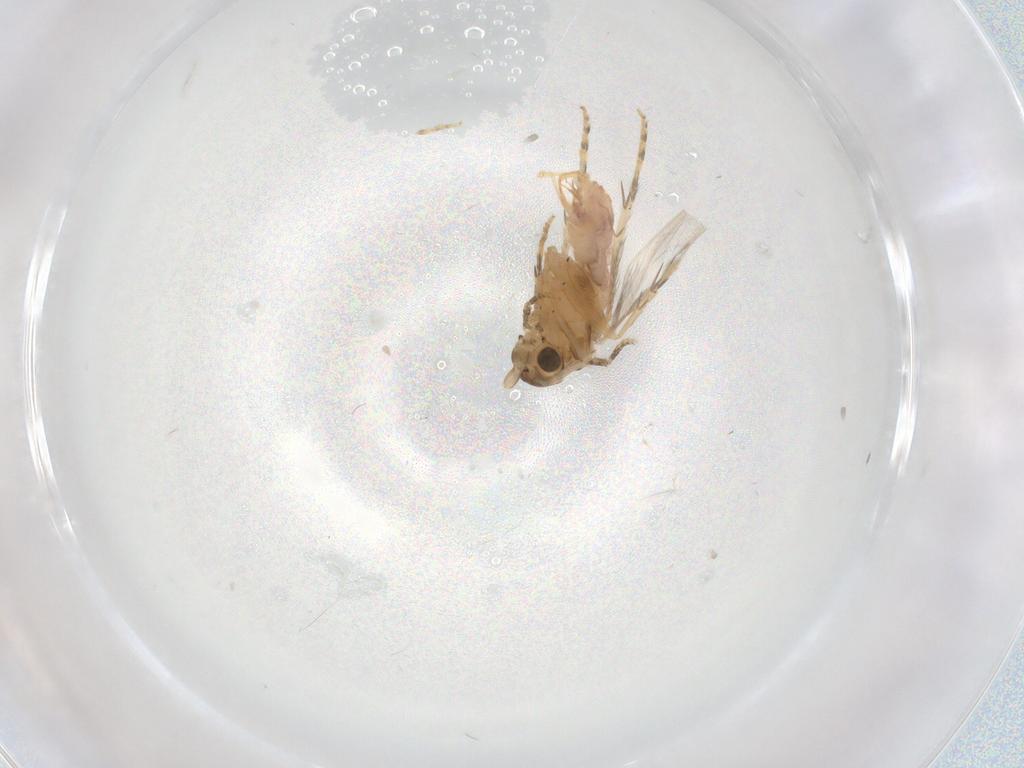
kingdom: Animalia
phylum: Arthropoda
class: Insecta
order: Trichoptera
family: Glossosomatidae
